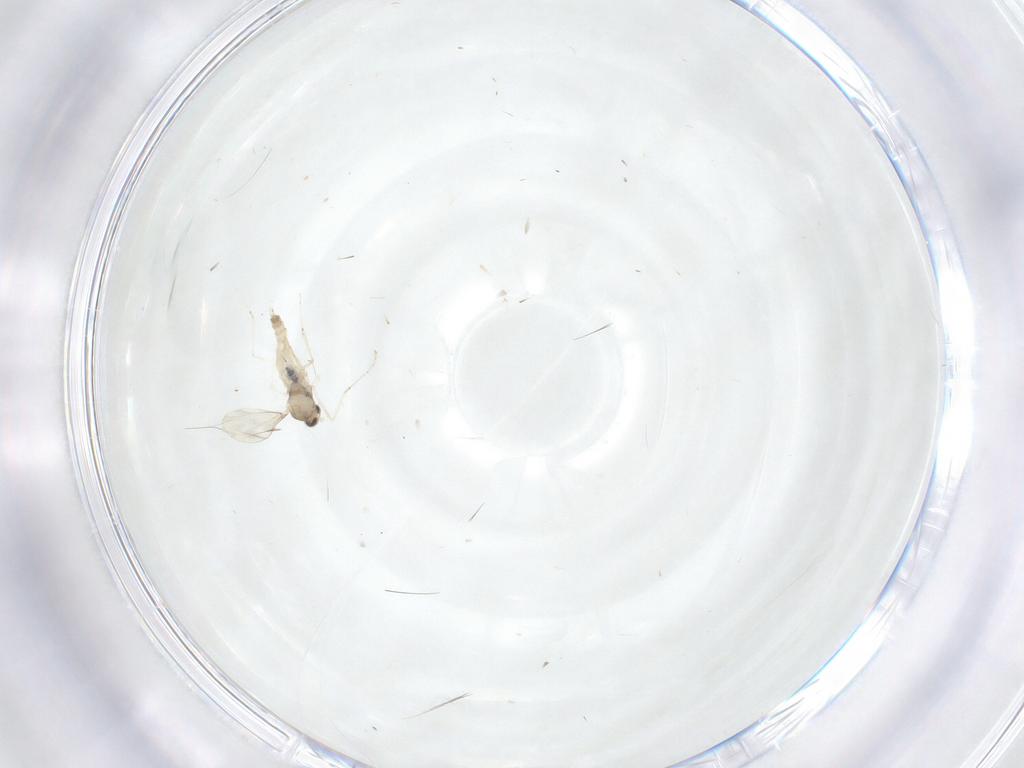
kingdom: Animalia
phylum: Arthropoda
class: Insecta
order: Diptera
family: Cecidomyiidae
